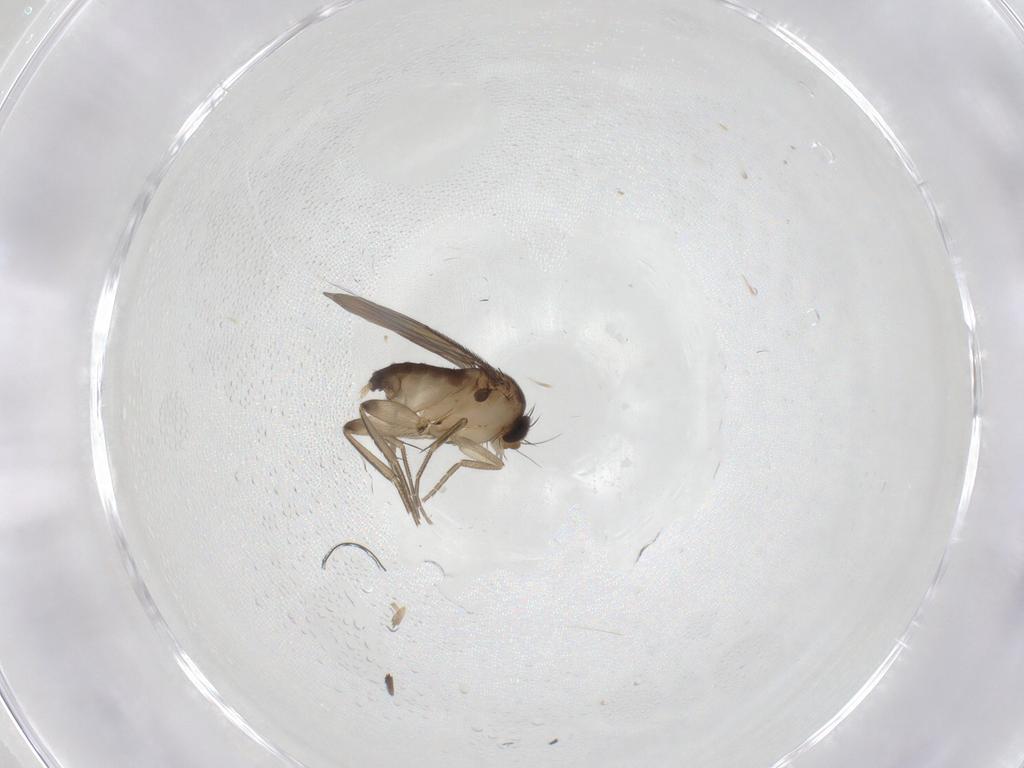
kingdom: Animalia
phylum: Arthropoda
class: Insecta
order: Diptera
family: Phoridae
